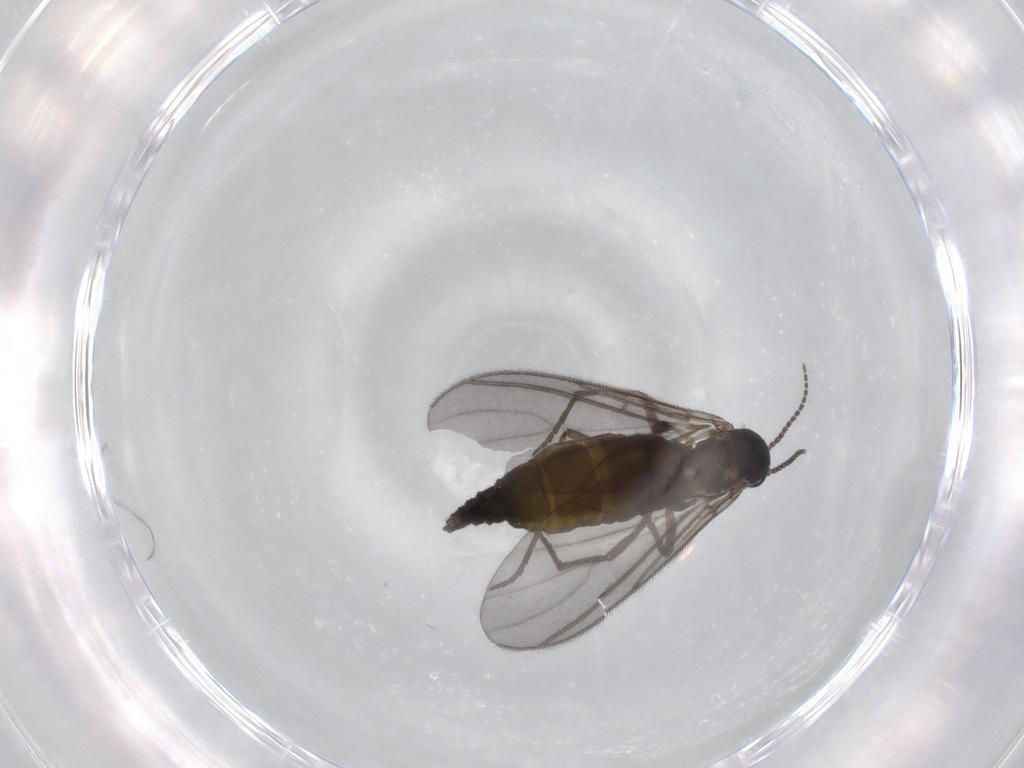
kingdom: Animalia
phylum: Arthropoda
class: Insecta
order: Diptera
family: Sciaridae
